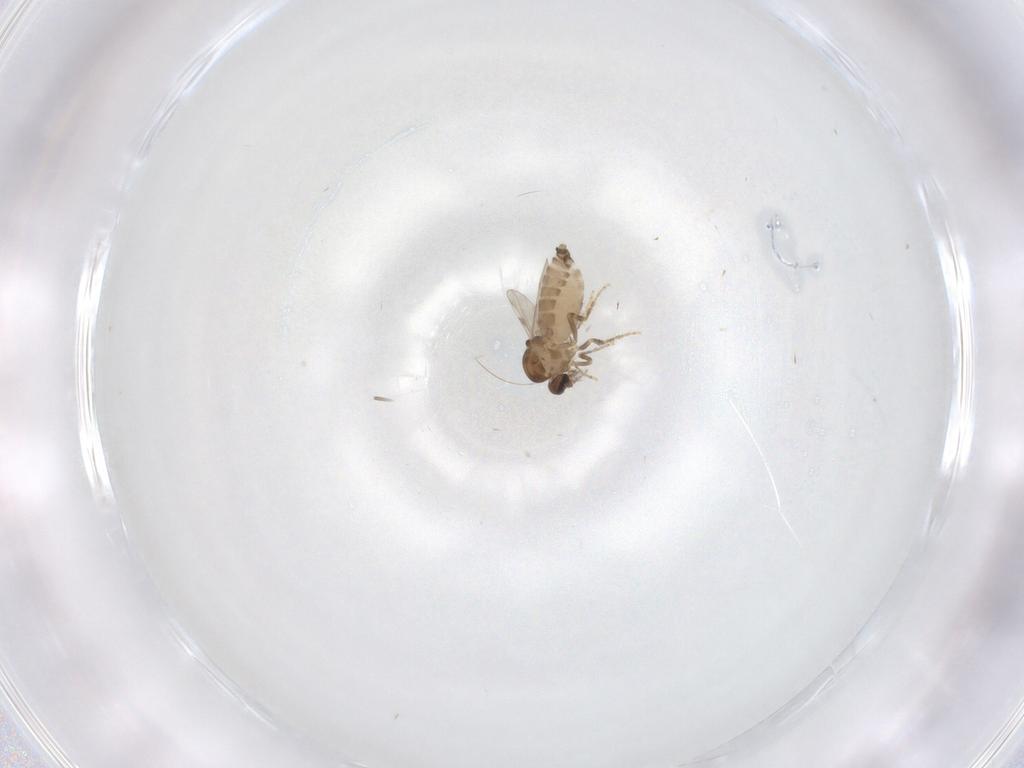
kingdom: Animalia
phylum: Arthropoda
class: Insecta
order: Diptera
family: Ceratopogonidae
